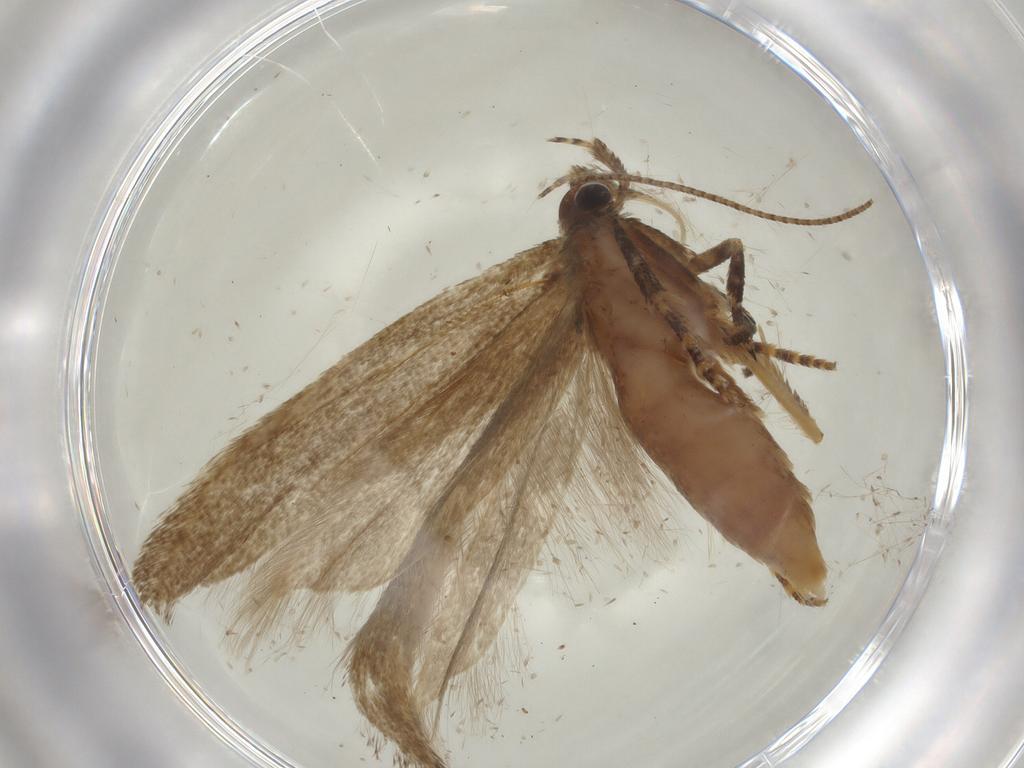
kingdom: Animalia
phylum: Arthropoda
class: Insecta
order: Lepidoptera
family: Gelechiidae
